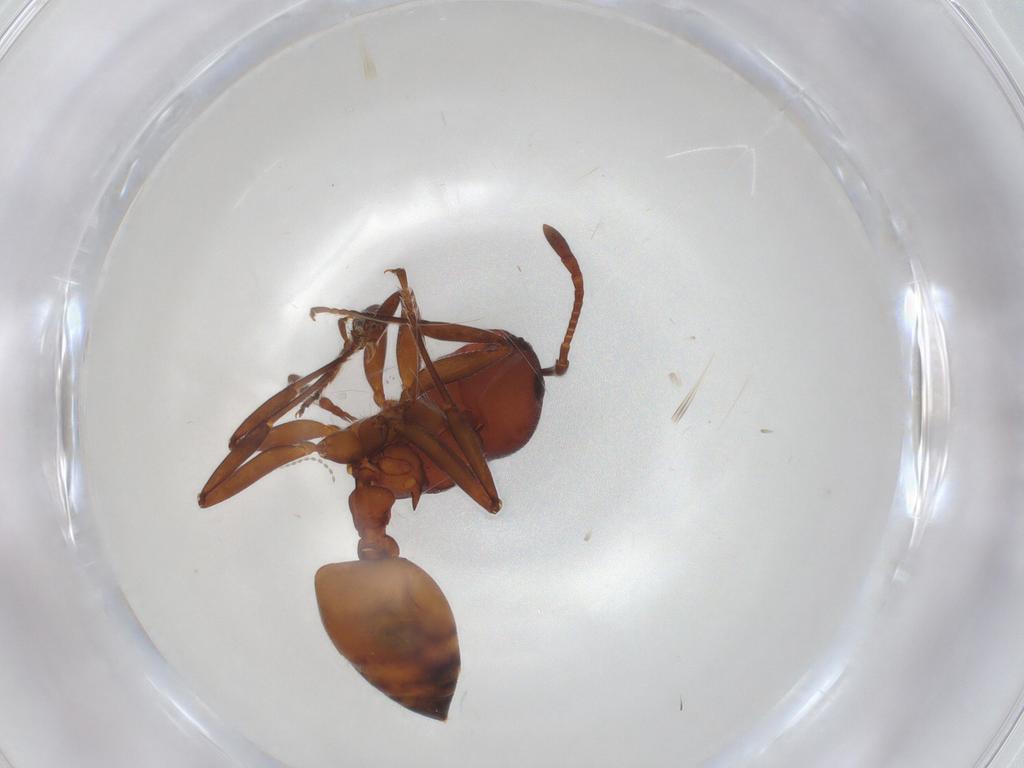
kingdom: Animalia
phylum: Arthropoda
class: Insecta
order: Hymenoptera
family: Formicidae
